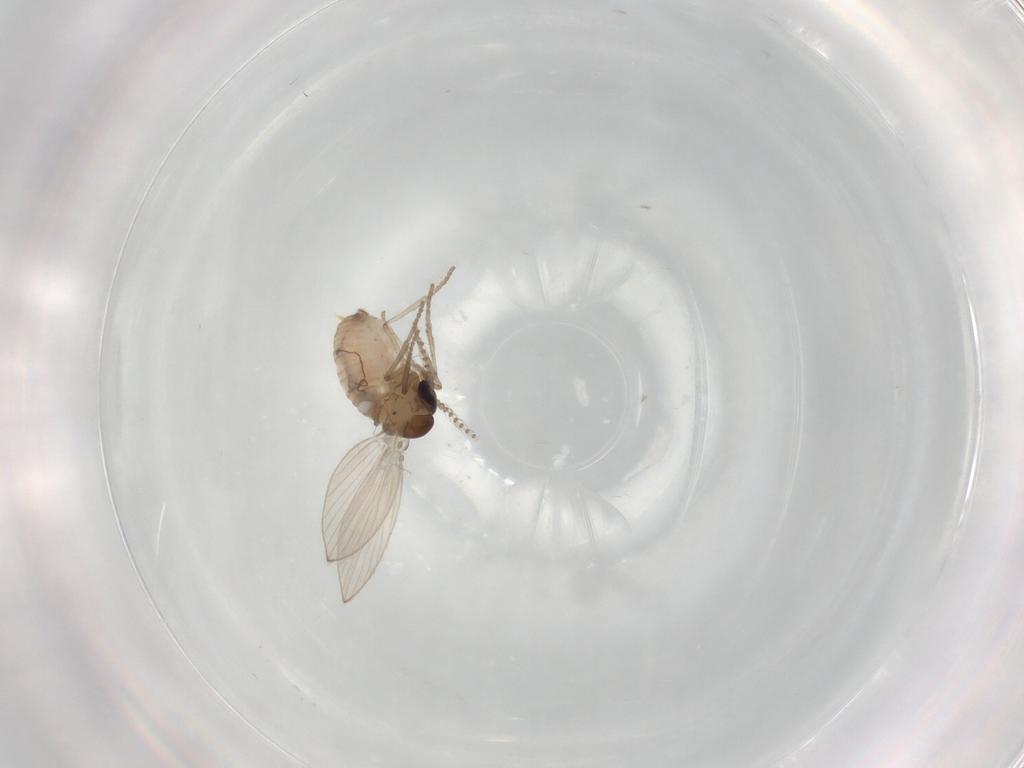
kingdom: Animalia
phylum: Arthropoda
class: Insecta
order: Diptera
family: Psychodidae
